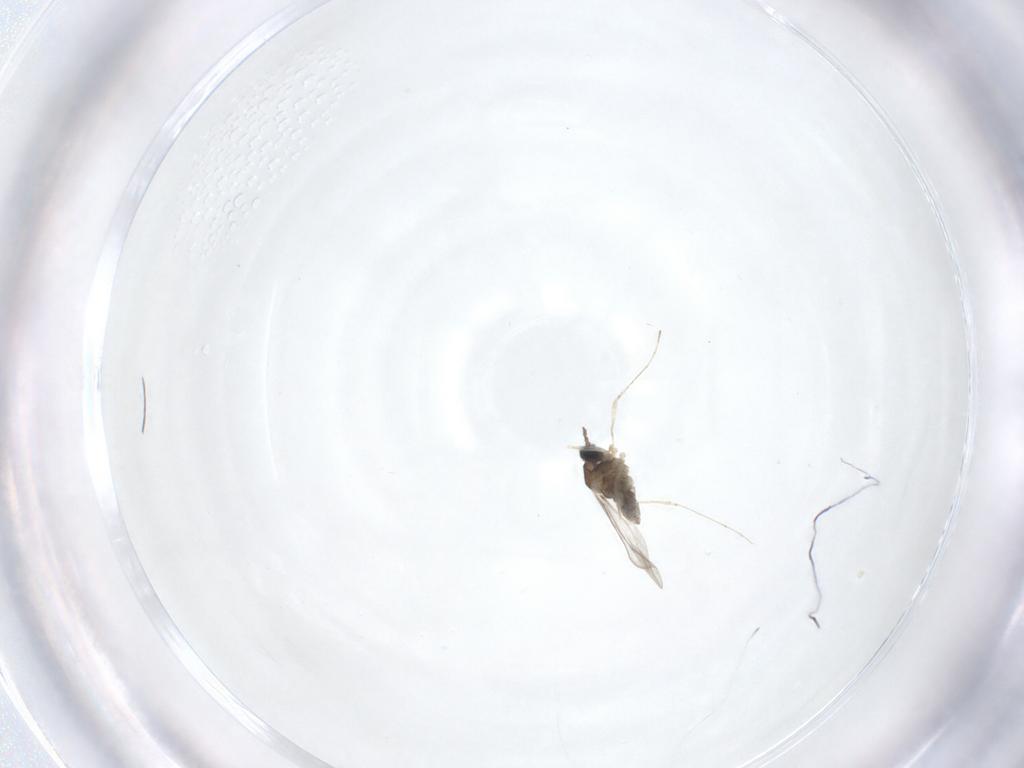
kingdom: Animalia
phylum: Arthropoda
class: Insecta
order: Diptera
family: Cecidomyiidae
